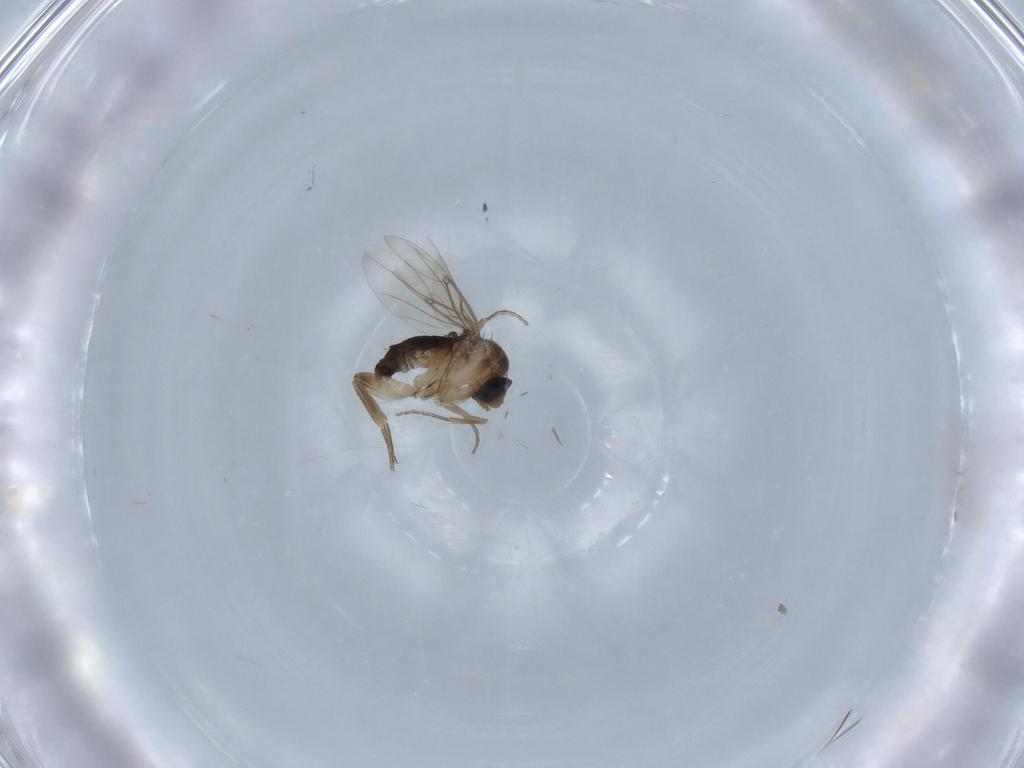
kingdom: Animalia
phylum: Arthropoda
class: Insecta
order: Diptera
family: Phoridae
